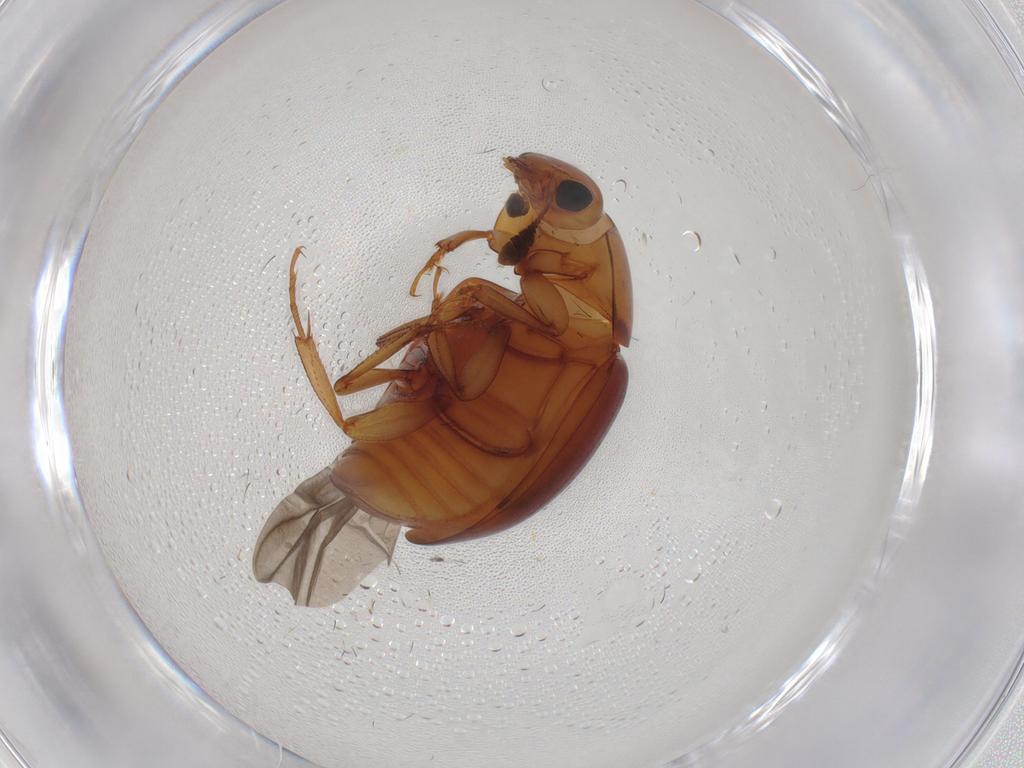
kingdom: Animalia
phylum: Arthropoda
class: Insecta
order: Coleoptera
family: Nitidulidae
